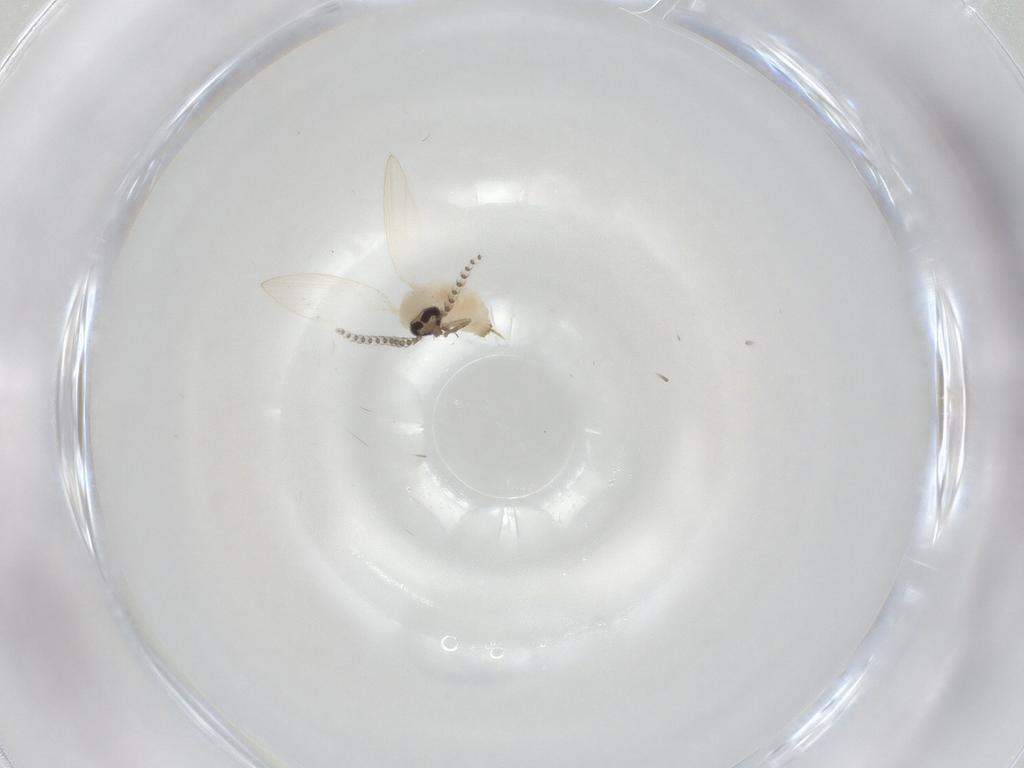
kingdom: Animalia
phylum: Arthropoda
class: Insecta
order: Diptera
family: Psychodidae
